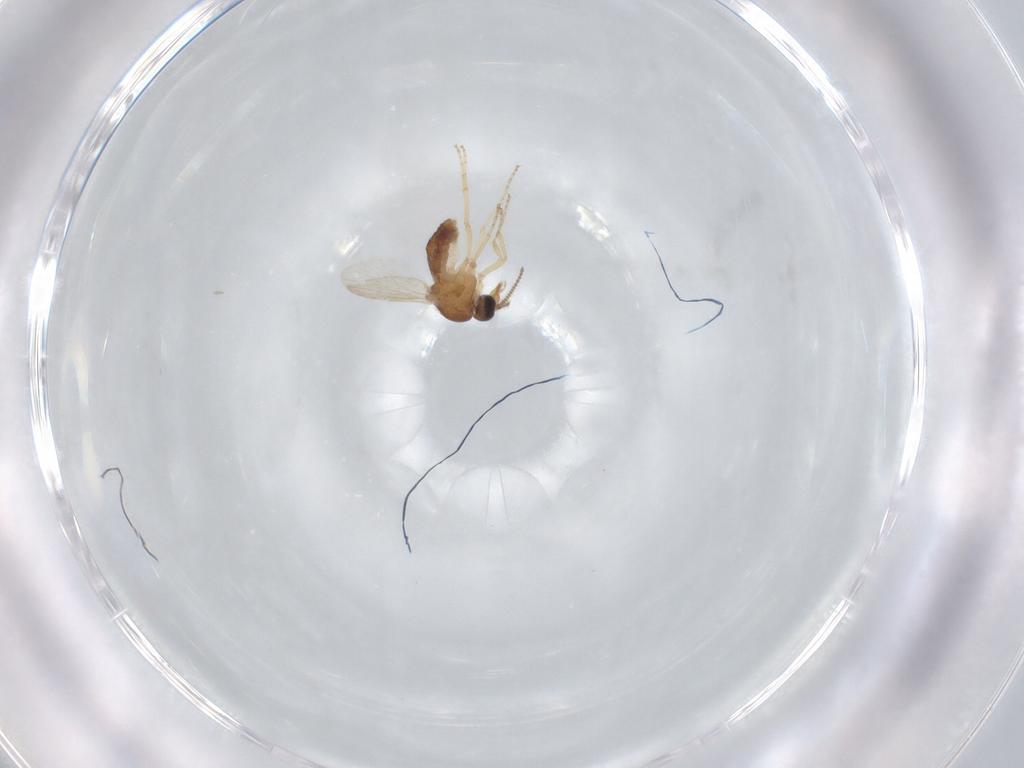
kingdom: Animalia
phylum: Arthropoda
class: Insecta
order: Diptera
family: Ceratopogonidae
